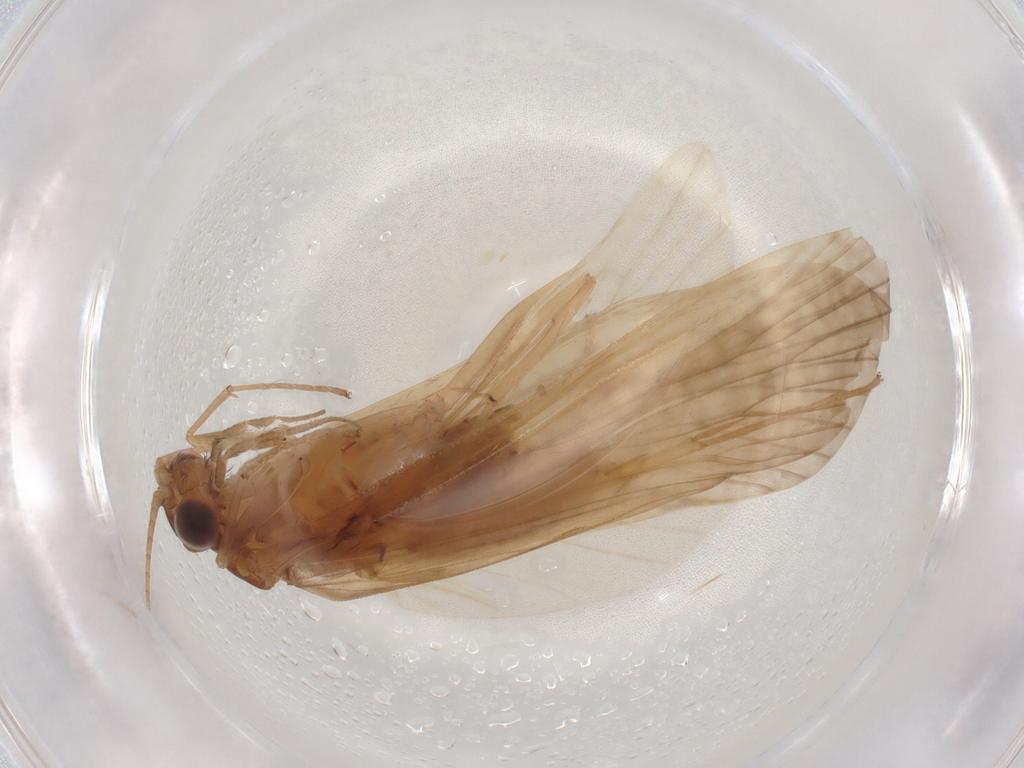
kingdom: Animalia
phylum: Arthropoda
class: Insecta
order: Trichoptera
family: Hydropsychidae
